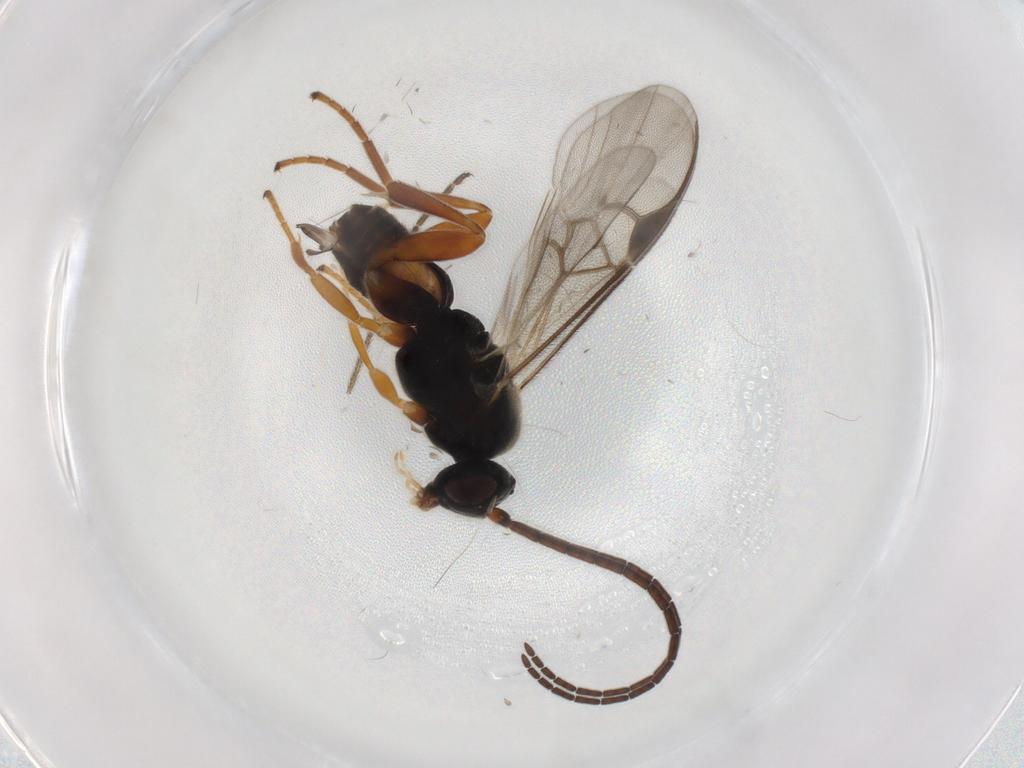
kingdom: Animalia
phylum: Arthropoda
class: Insecta
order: Hymenoptera
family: Braconidae
